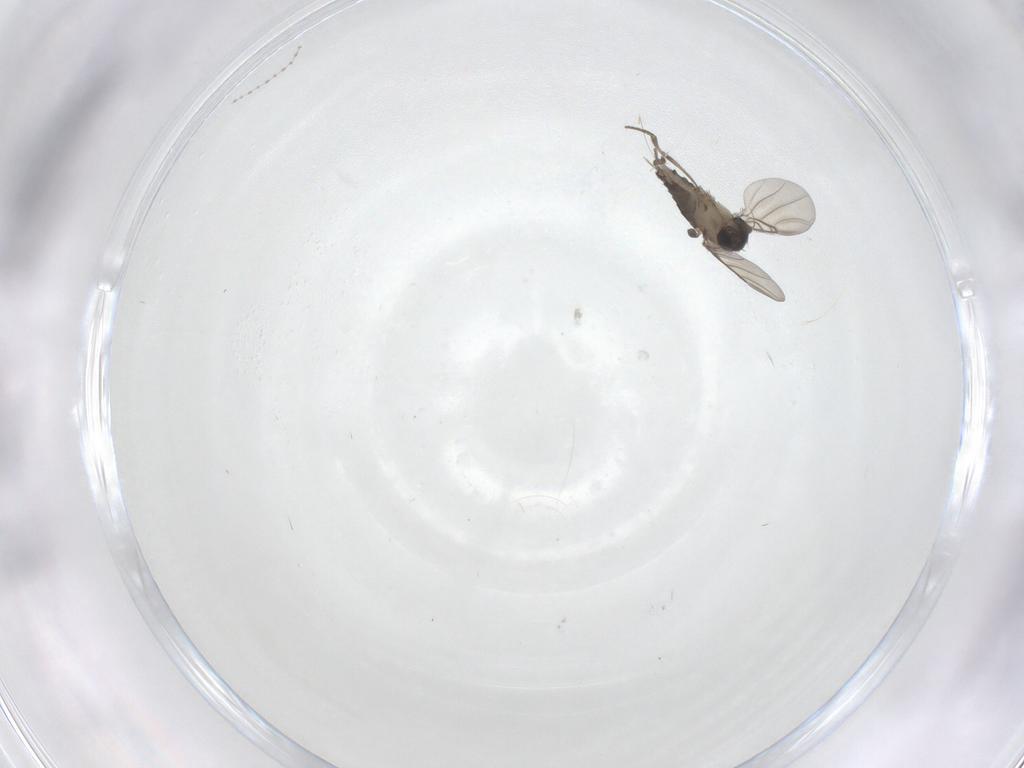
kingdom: Animalia
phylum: Arthropoda
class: Insecta
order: Diptera
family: Cecidomyiidae
